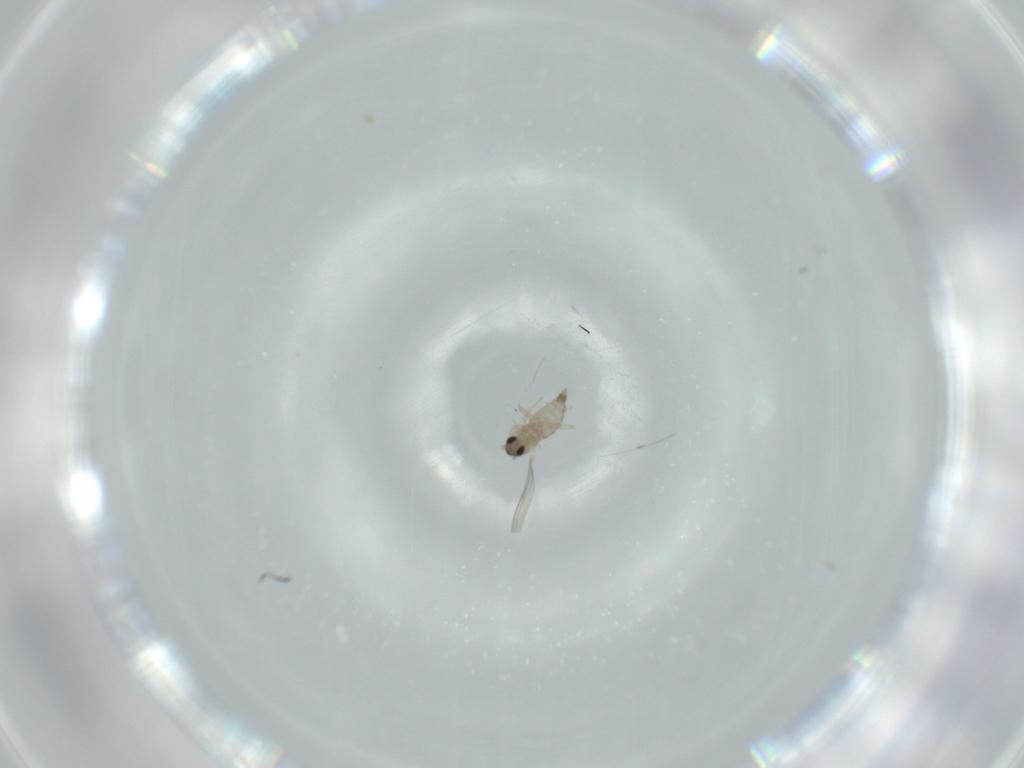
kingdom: Animalia
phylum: Arthropoda
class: Insecta
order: Diptera
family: Cecidomyiidae
